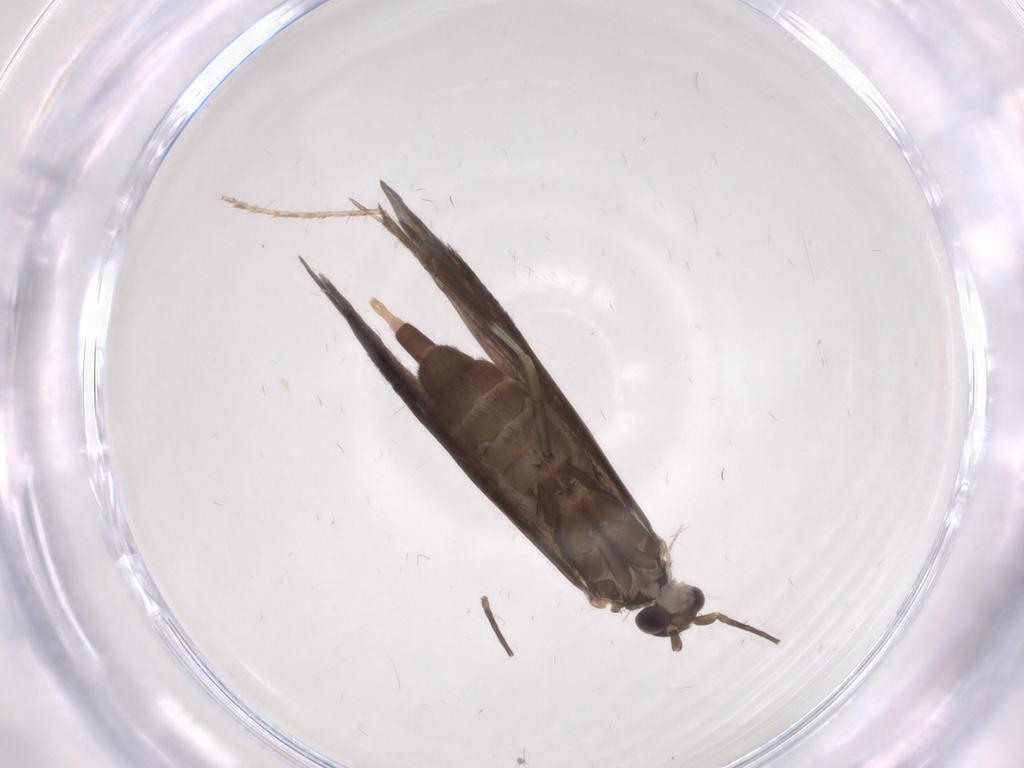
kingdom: Animalia
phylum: Arthropoda
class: Insecta
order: Trichoptera
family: Xiphocentronidae
